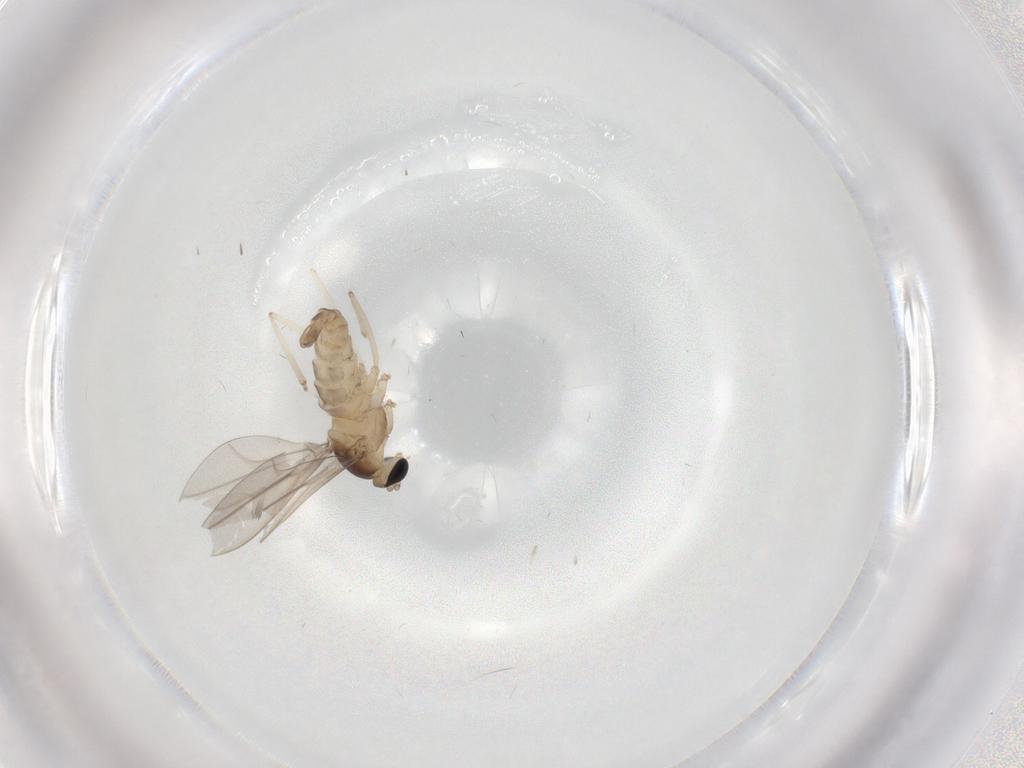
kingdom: Animalia
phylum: Arthropoda
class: Insecta
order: Diptera
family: Cecidomyiidae
